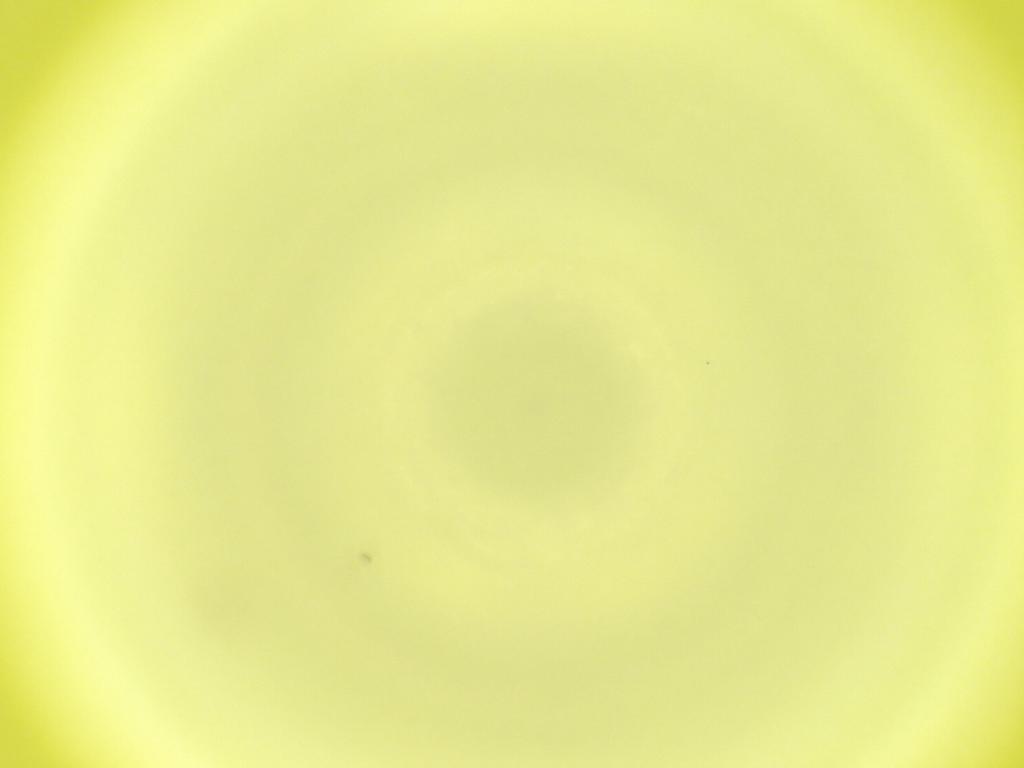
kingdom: Animalia
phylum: Arthropoda
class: Insecta
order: Diptera
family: Cecidomyiidae
